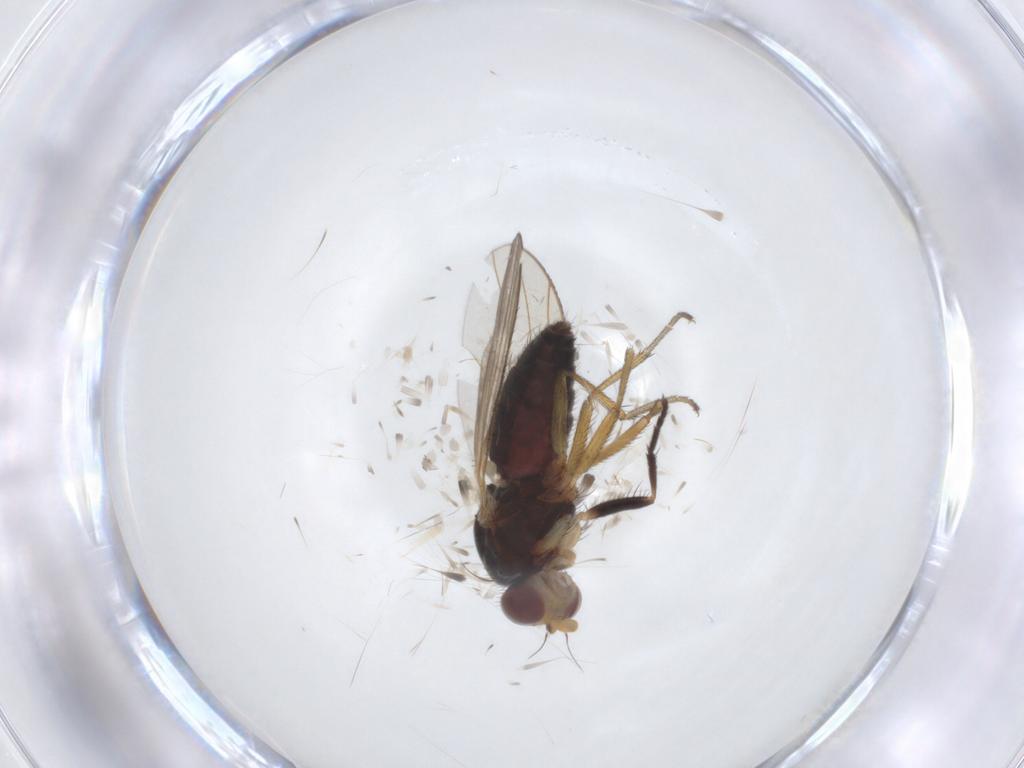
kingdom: Animalia
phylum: Arthropoda
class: Insecta
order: Diptera
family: Heleomyzidae
